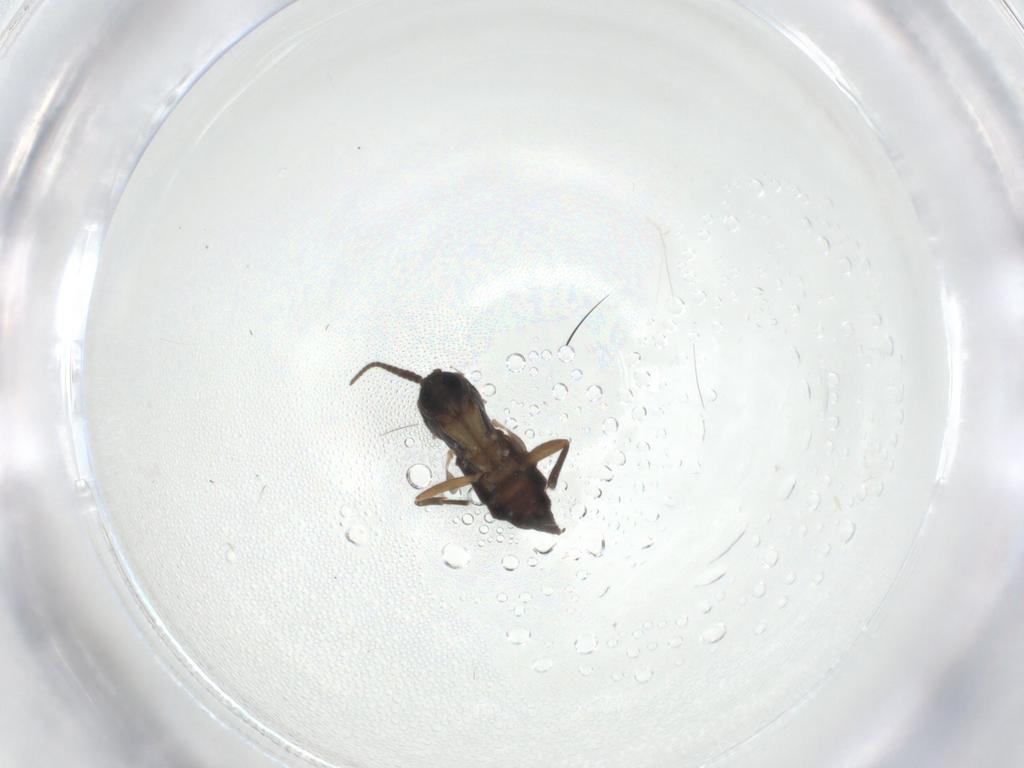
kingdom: Animalia
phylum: Arthropoda
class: Insecta
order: Diptera
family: Sciaridae
